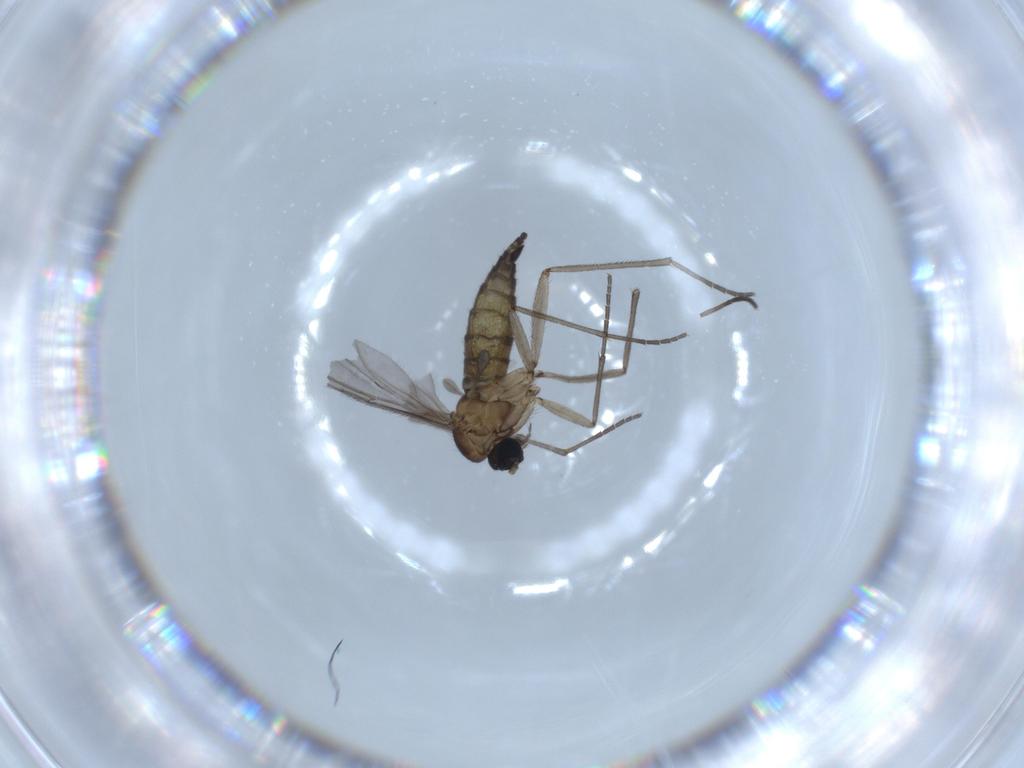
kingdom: Animalia
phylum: Arthropoda
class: Insecta
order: Diptera
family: Sciaridae
